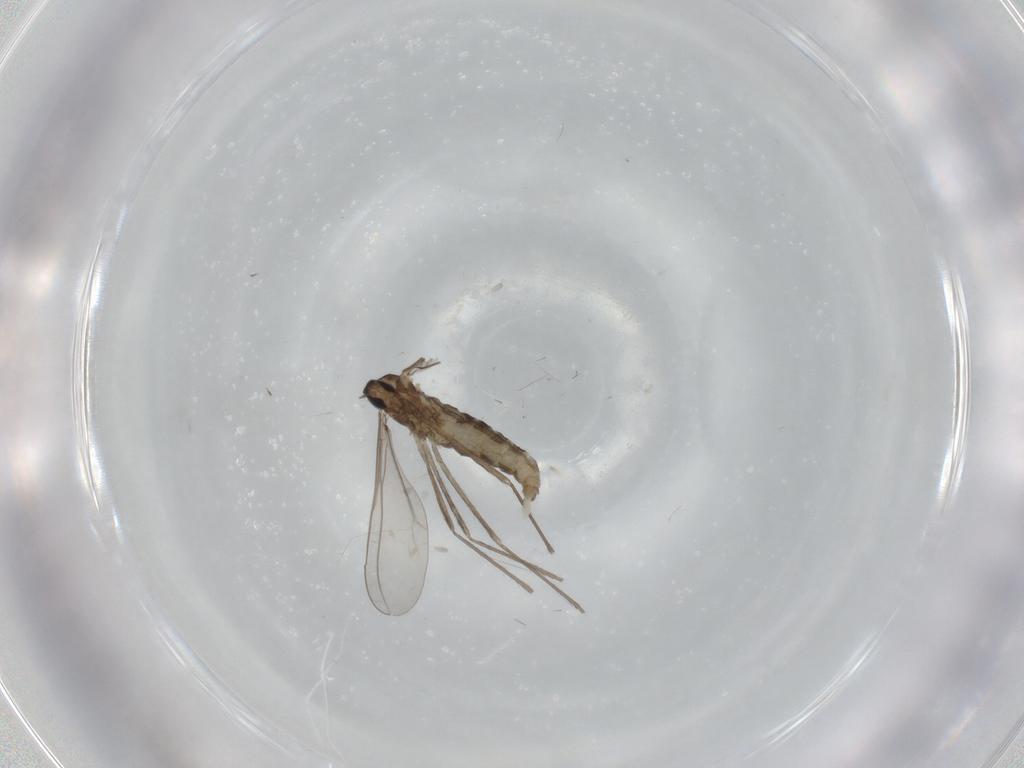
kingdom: Animalia
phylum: Arthropoda
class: Insecta
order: Diptera
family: Cecidomyiidae
